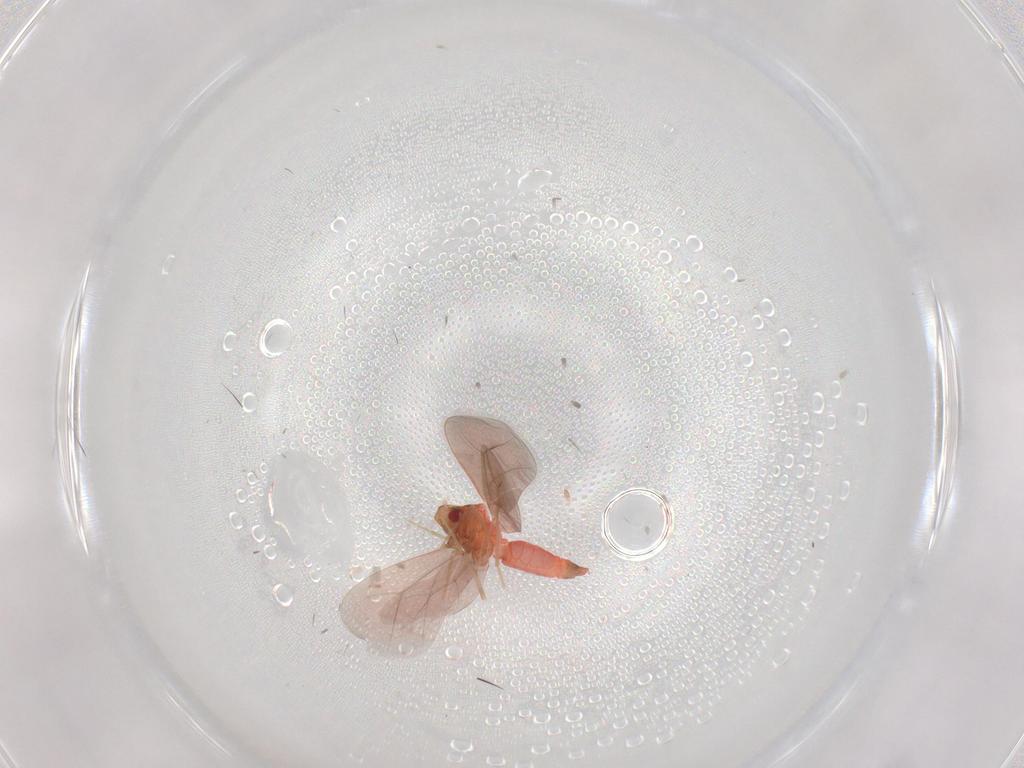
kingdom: Animalia
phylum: Arthropoda
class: Insecta
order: Hemiptera
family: Aleyrodidae
